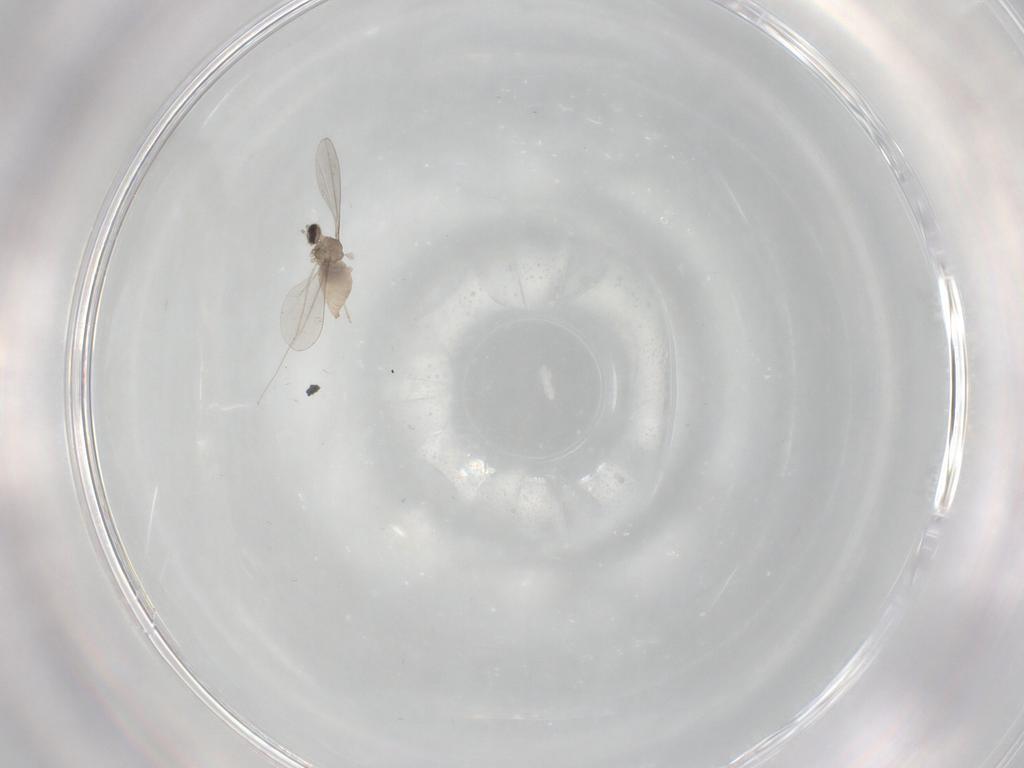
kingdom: Animalia
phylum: Arthropoda
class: Insecta
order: Diptera
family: Cecidomyiidae
